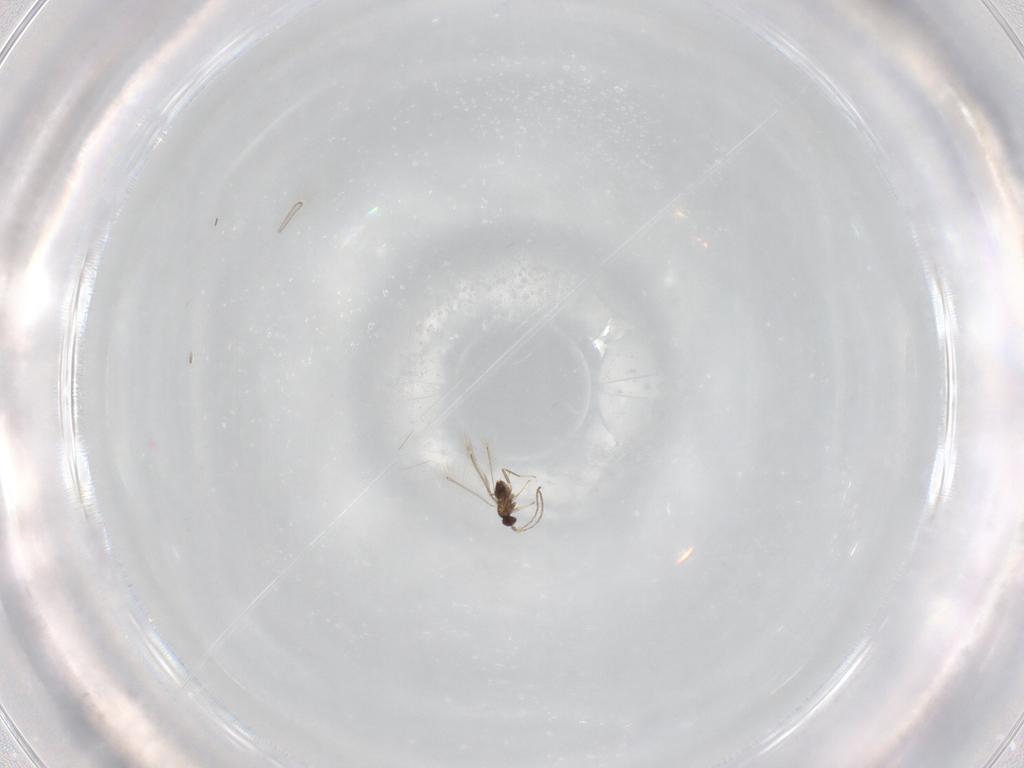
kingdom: Animalia
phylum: Arthropoda
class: Insecta
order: Hymenoptera
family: Mymaridae
